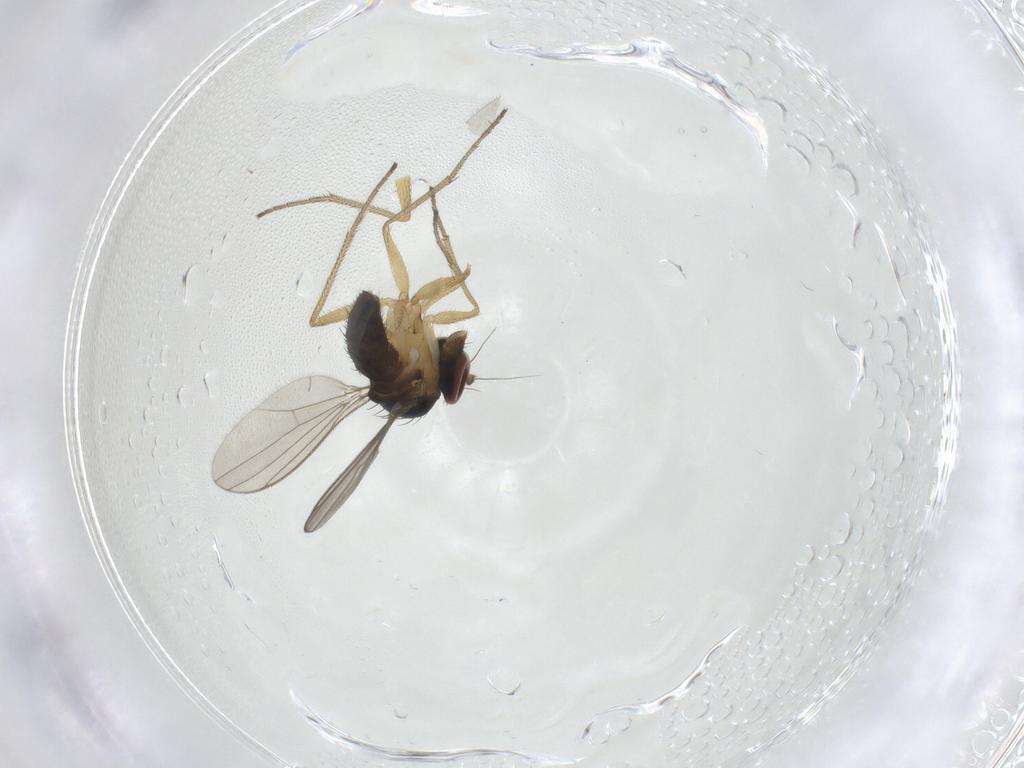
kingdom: Animalia
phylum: Arthropoda
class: Insecta
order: Diptera
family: Dolichopodidae
